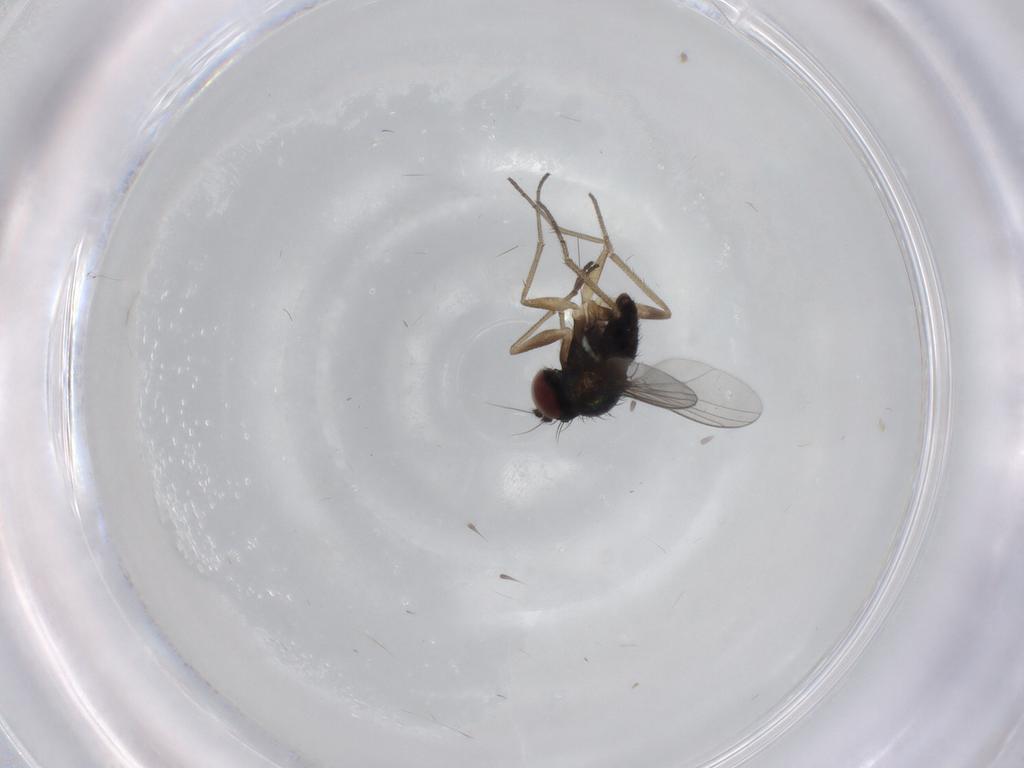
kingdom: Animalia
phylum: Arthropoda
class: Insecta
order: Diptera
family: Dolichopodidae
